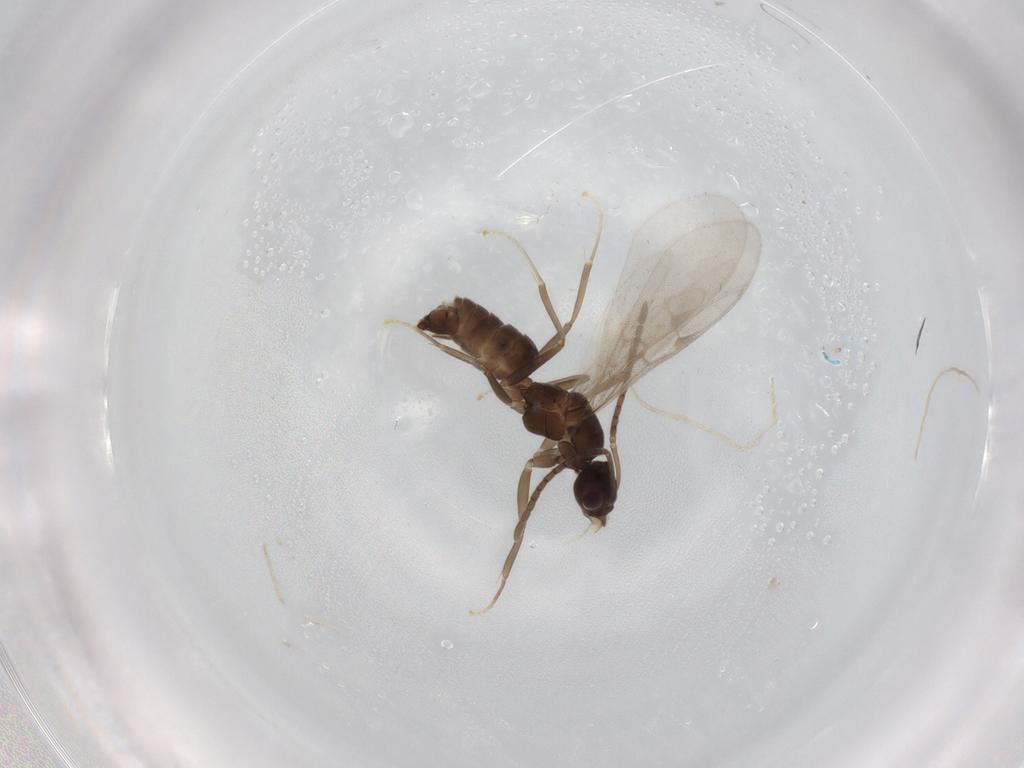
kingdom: Animalia
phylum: Arthropoda
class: Insecta
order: Hymenoptera
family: Formicidae
